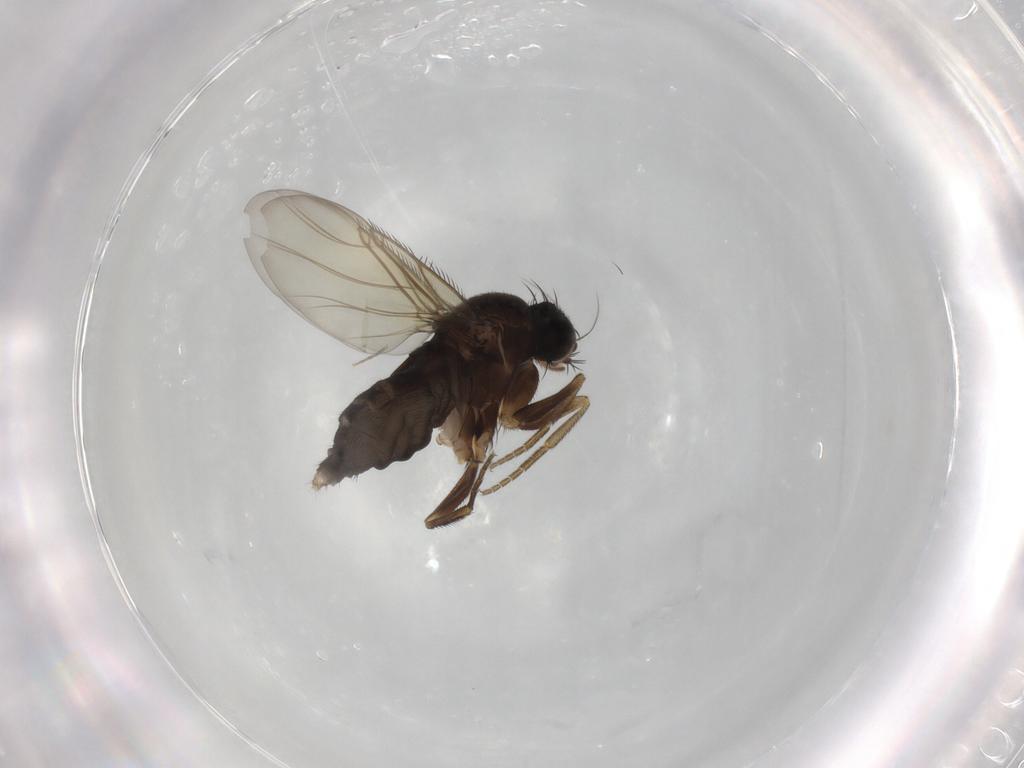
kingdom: Animalia
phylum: Arthropoda
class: Insecta
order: Diptera
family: Phoridae
